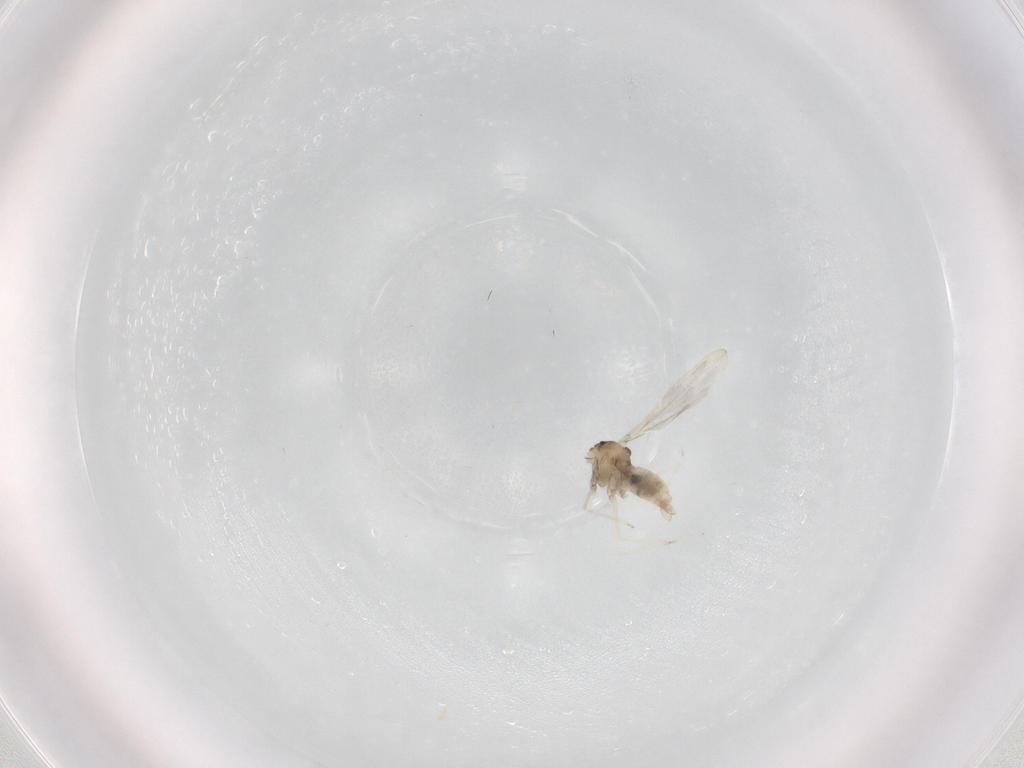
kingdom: Animalia
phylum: Arthropoda
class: Insecta
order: Diptera
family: Cecidomyiidae
